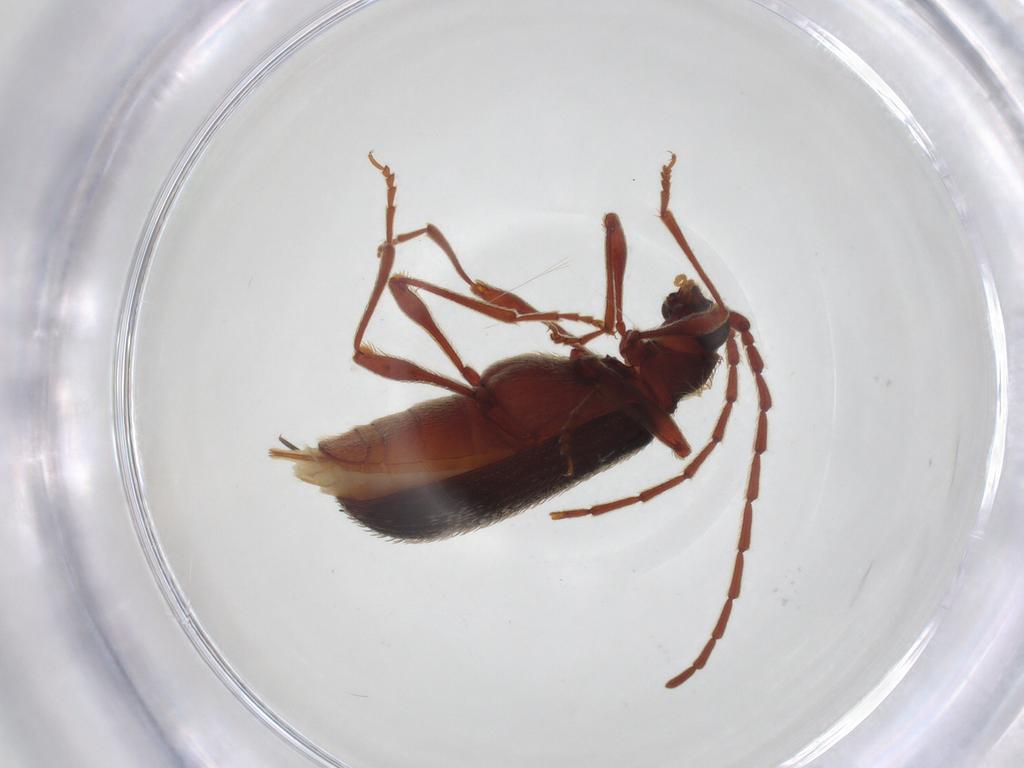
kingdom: Animalia
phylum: Arthropoda
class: Insecta
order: Coleoptera
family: Ptinidae
